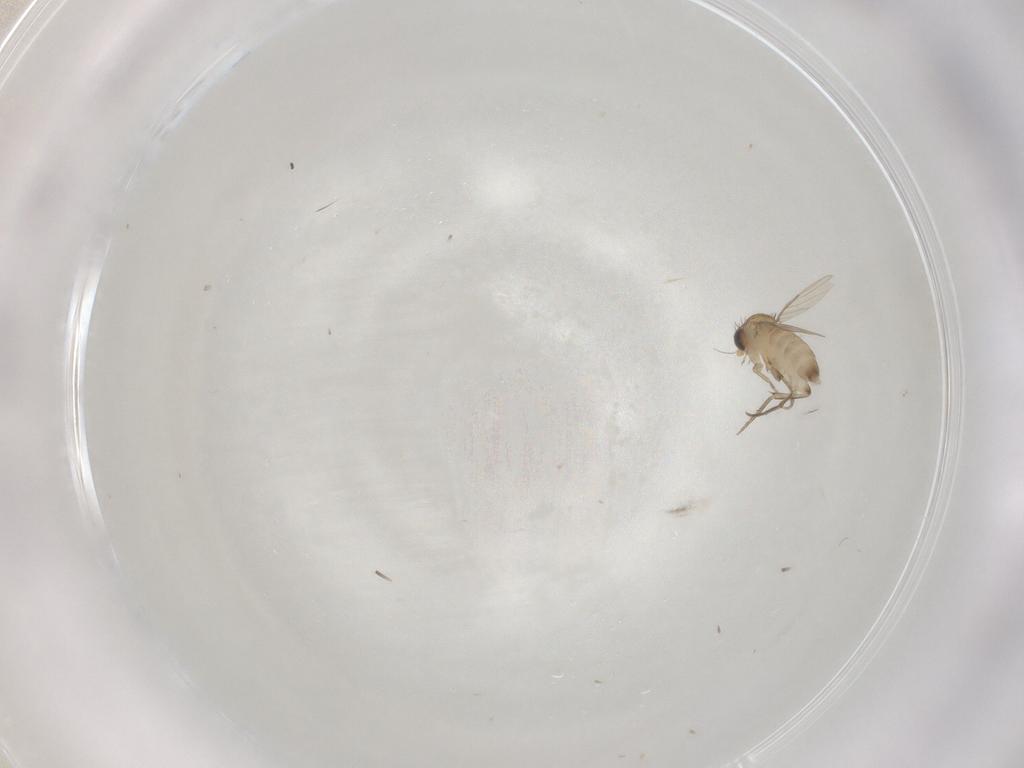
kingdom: Animalia
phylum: Arthropoda
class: Insecta
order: Diptera
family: Phoridae
